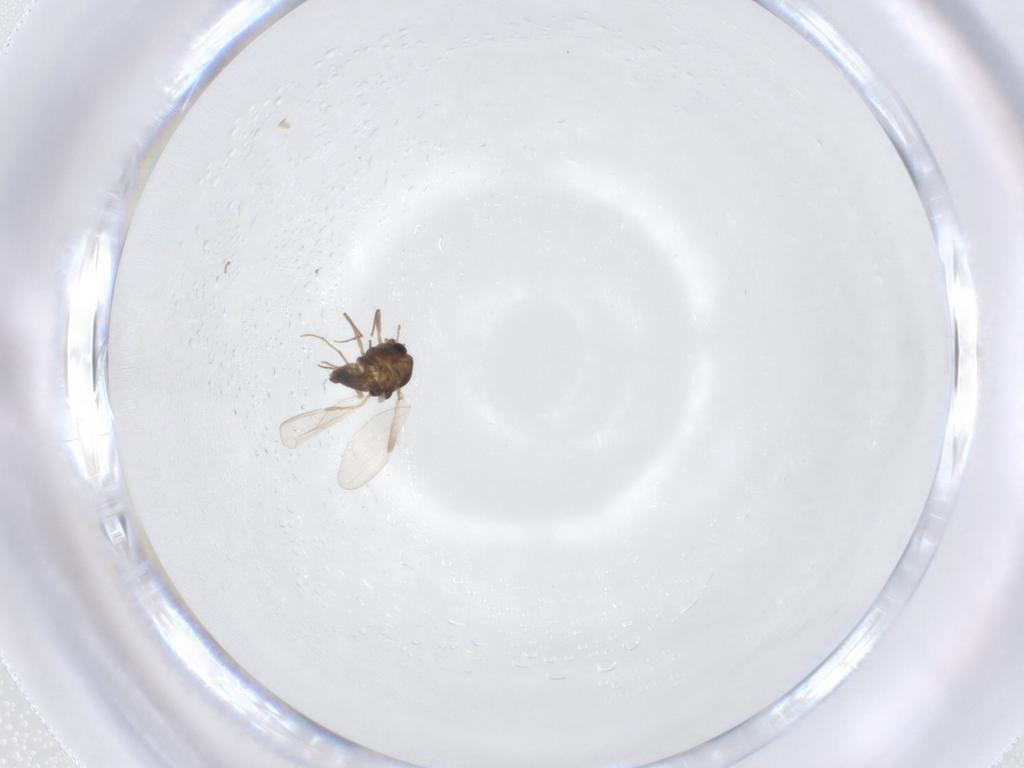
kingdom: Animalia
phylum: Arthropoda
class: Insecta
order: Diptera
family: Chironomidae
